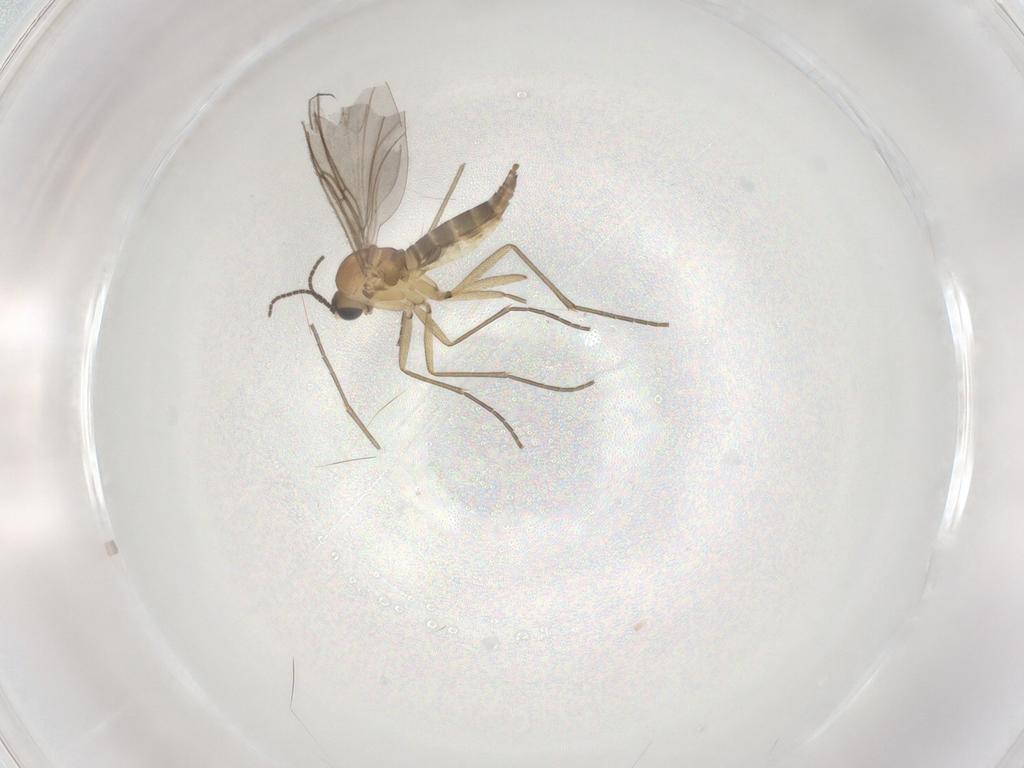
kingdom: Animalia
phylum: Arthropoda
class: Insecta
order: Diptera
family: Sciaridae
